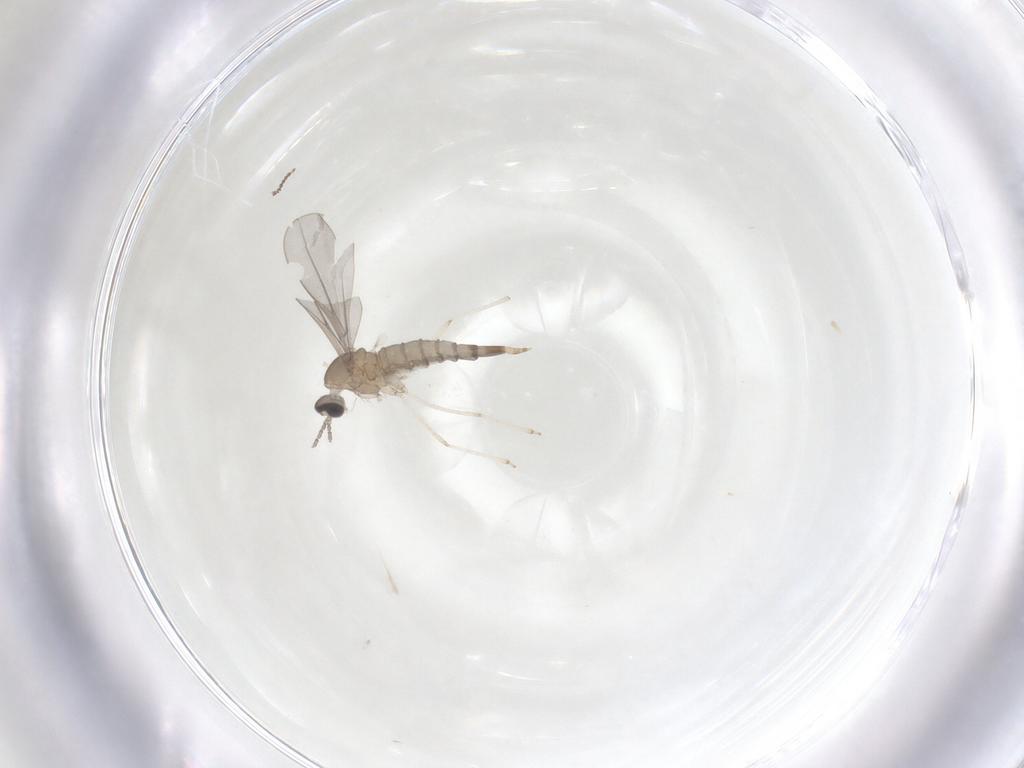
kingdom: Animalia
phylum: Arthropoda
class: Insecta
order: Diptera
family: Cecidomyiidae
